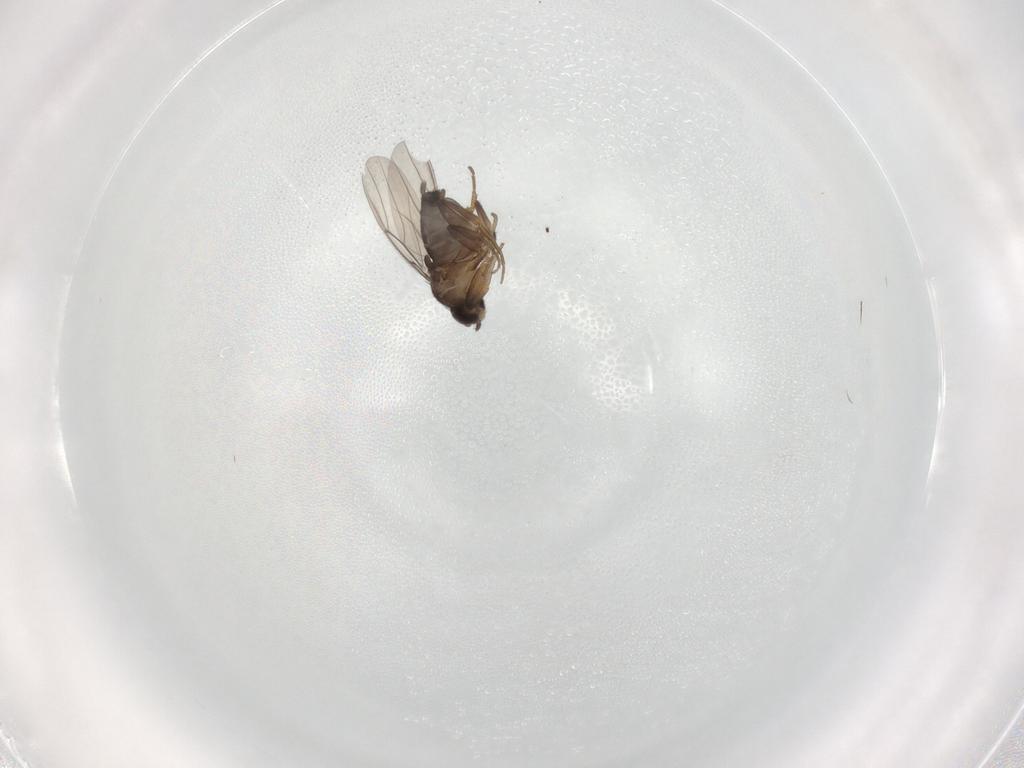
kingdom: Animalia
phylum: Arthropoda
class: Insecta
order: Diptera
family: Phoridae
